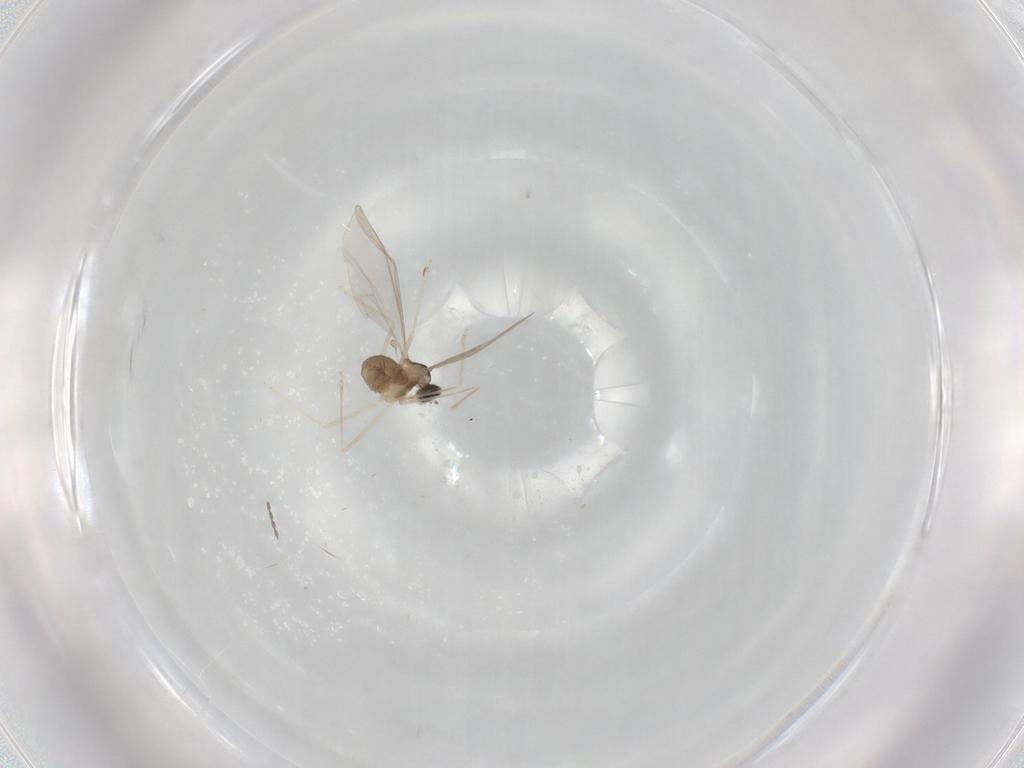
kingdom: Animalia
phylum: Arthropoda
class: Insecta
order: Diptera
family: Cecidomyiidae
